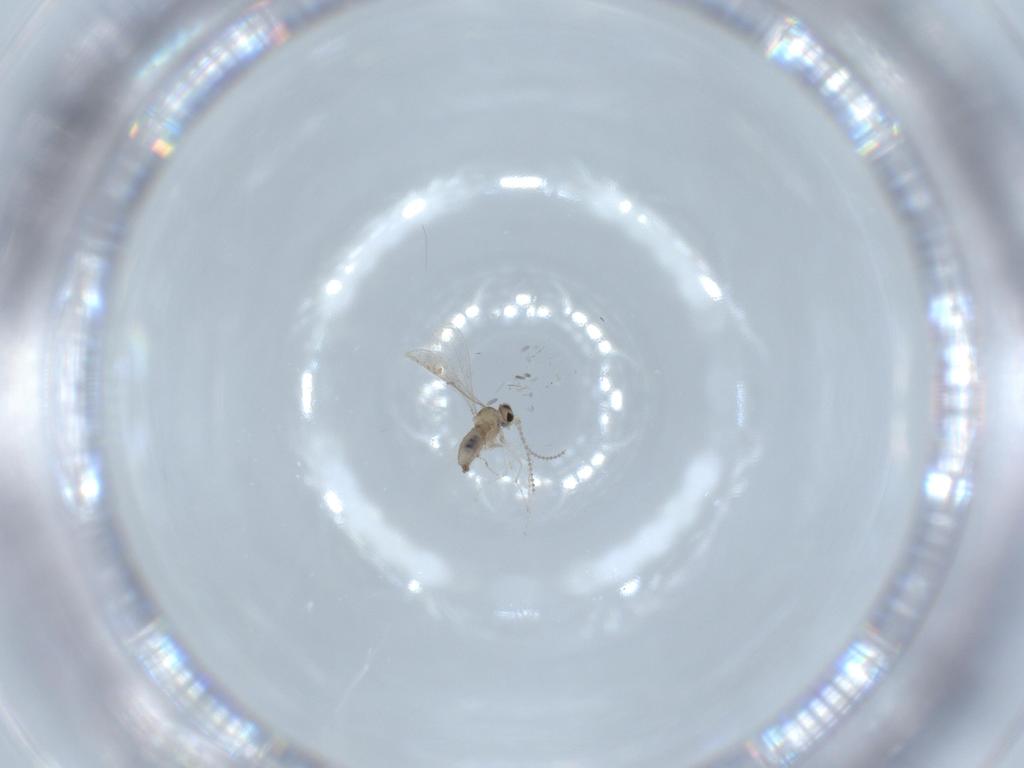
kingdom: Animalia
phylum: Arthropoda
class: Insecta
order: Diptera
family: Cecidomyiidae
